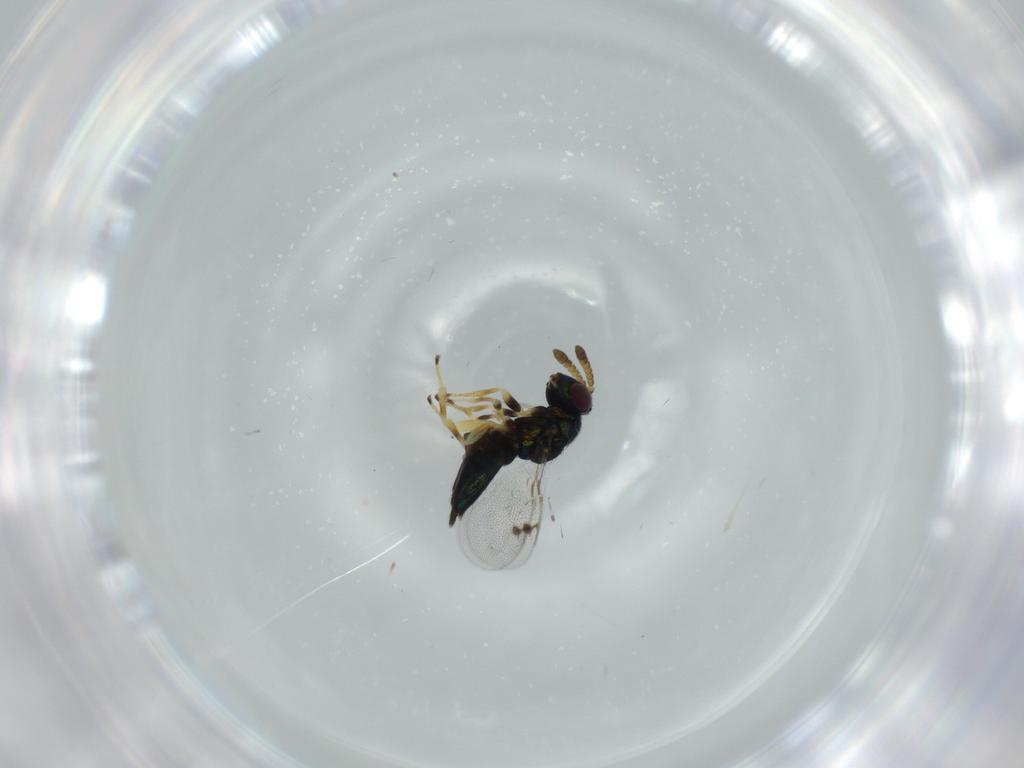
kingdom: Animalia
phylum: Arthropoda
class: Insecta
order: Hymenoptera
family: Pirenidae
